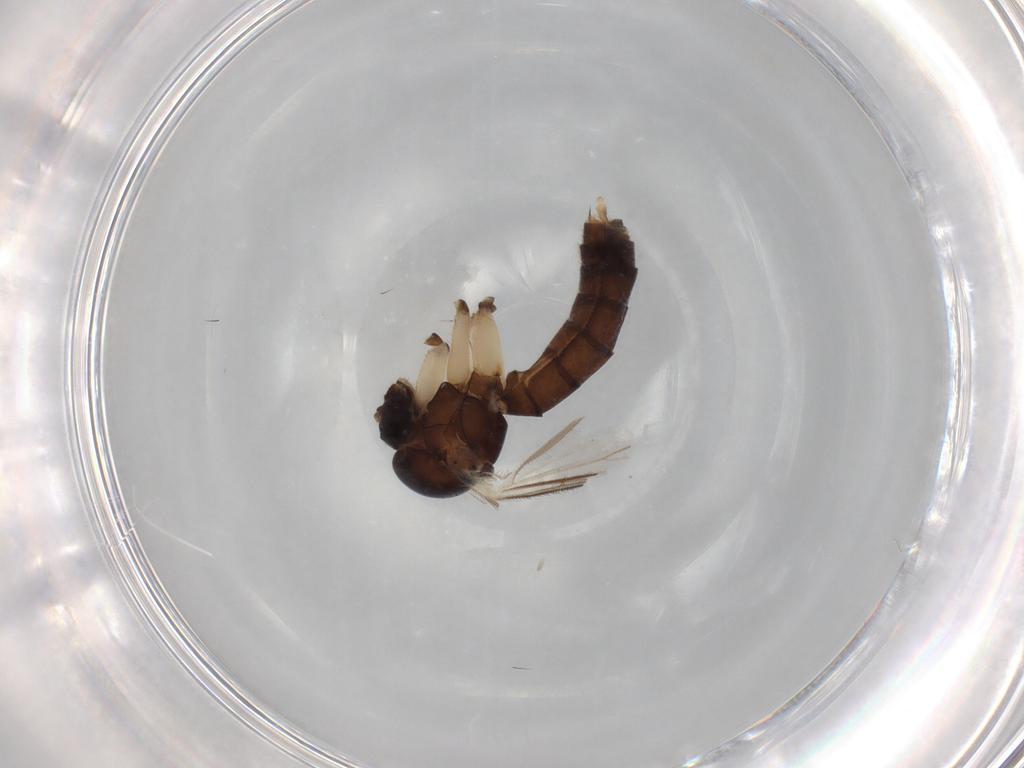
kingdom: Animalia
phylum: Arthropoda
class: Insecta
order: Diptera
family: Mycetophilidae
